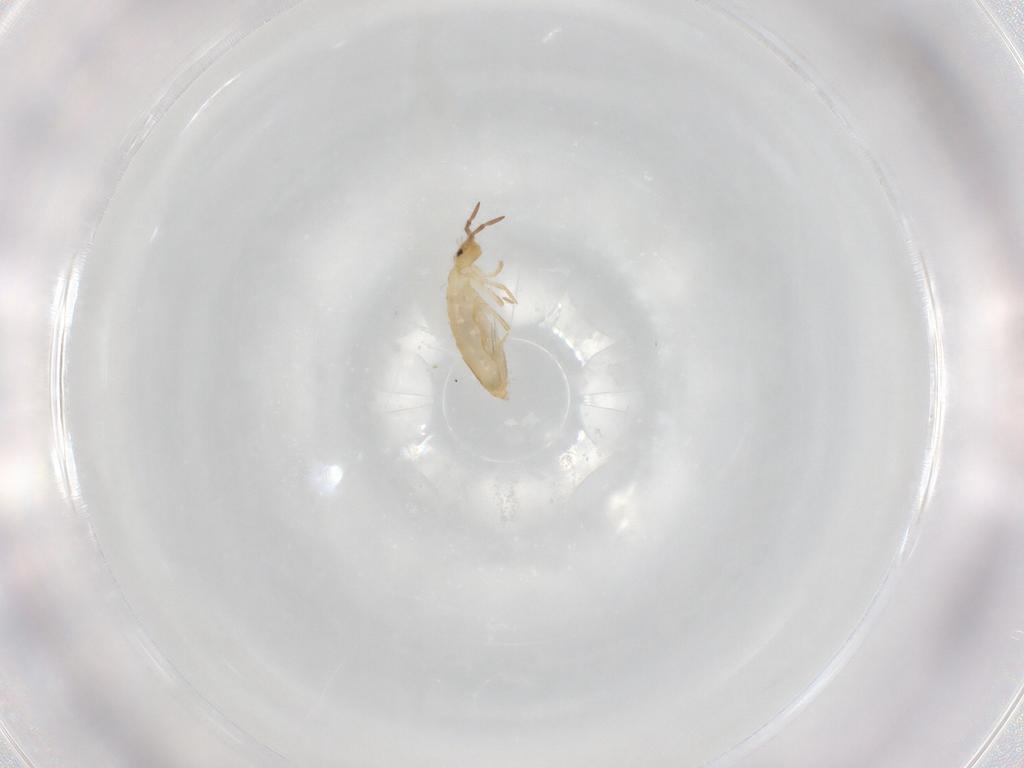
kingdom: Animalia
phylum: Arthropoda
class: Collembola
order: Entomobryomorpha
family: Entomobryidae
